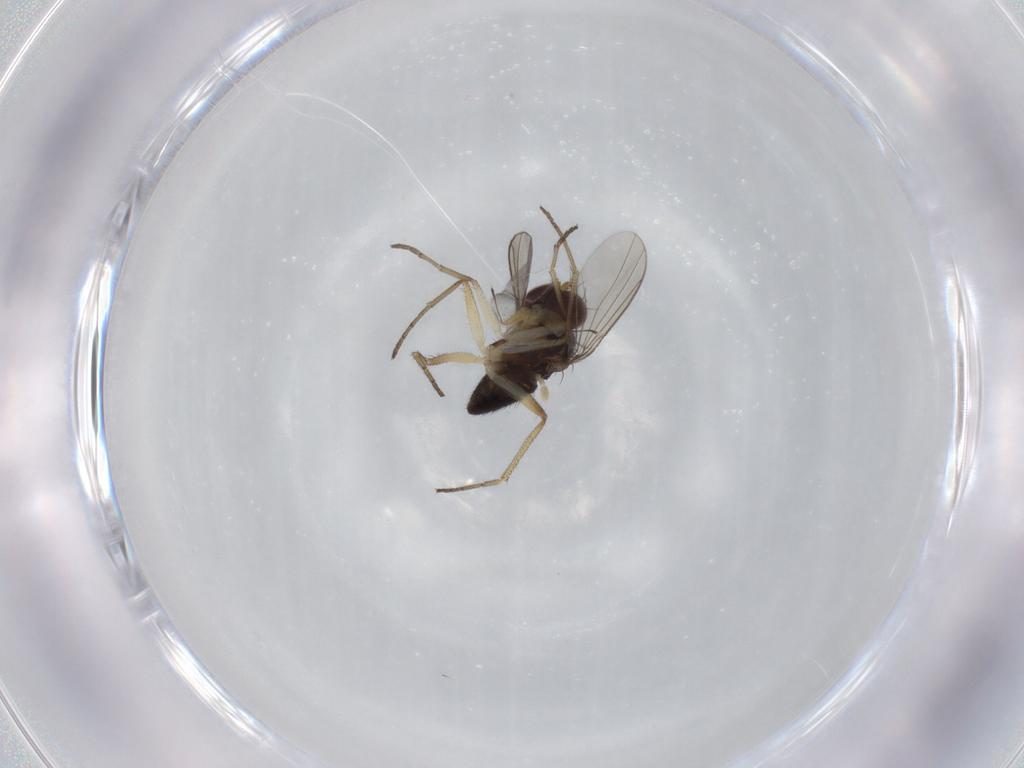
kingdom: Animalia
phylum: Arthropoda
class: Insecta
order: Diptera
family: Dolichopodidae
